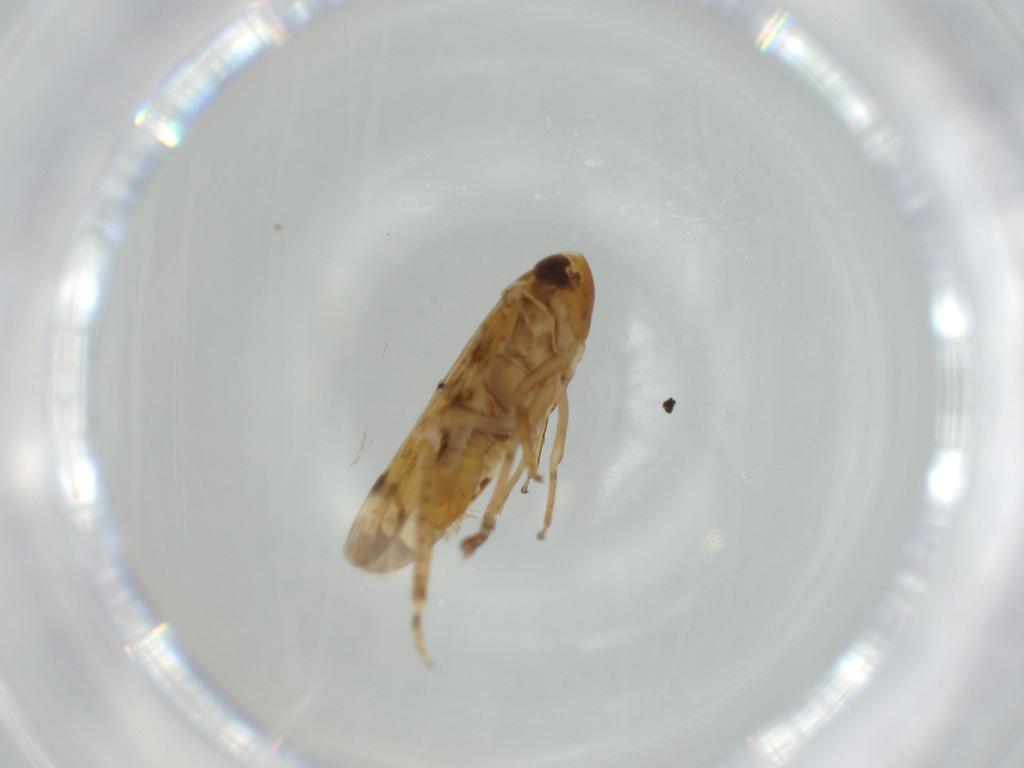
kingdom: Animalia
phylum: Arthropoda
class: Insecta
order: Hemiptera
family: Cicadellidae
